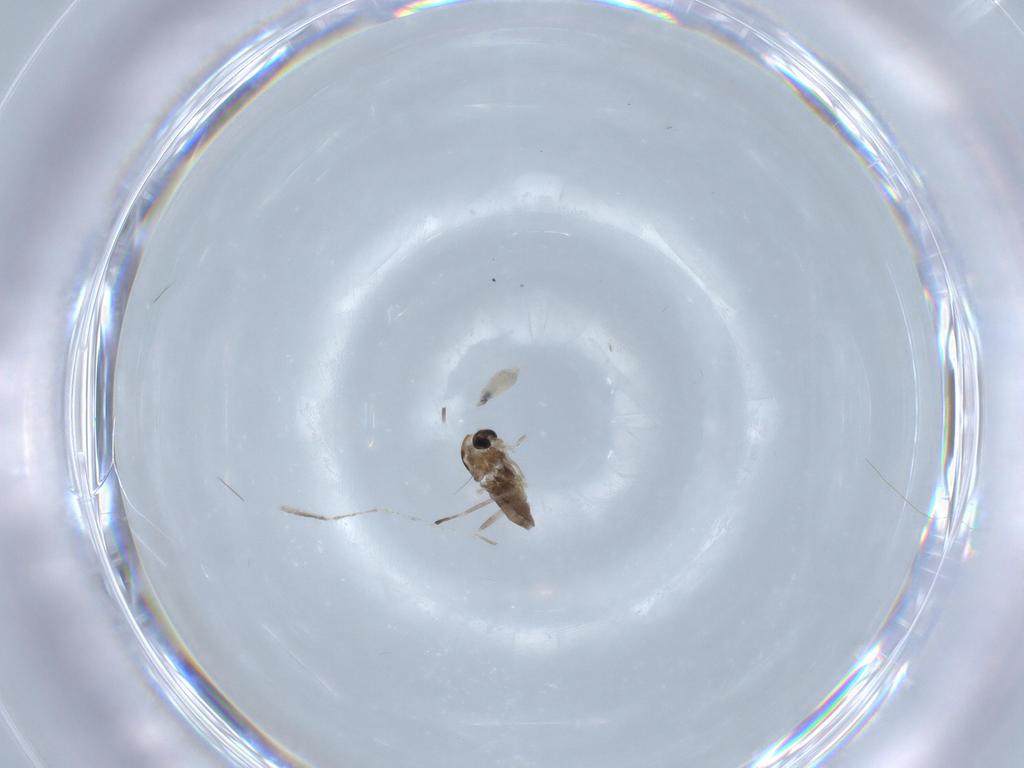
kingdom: Animalia
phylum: Arthropoda
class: Insecta
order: Diptera
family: Cecidomyiidae
